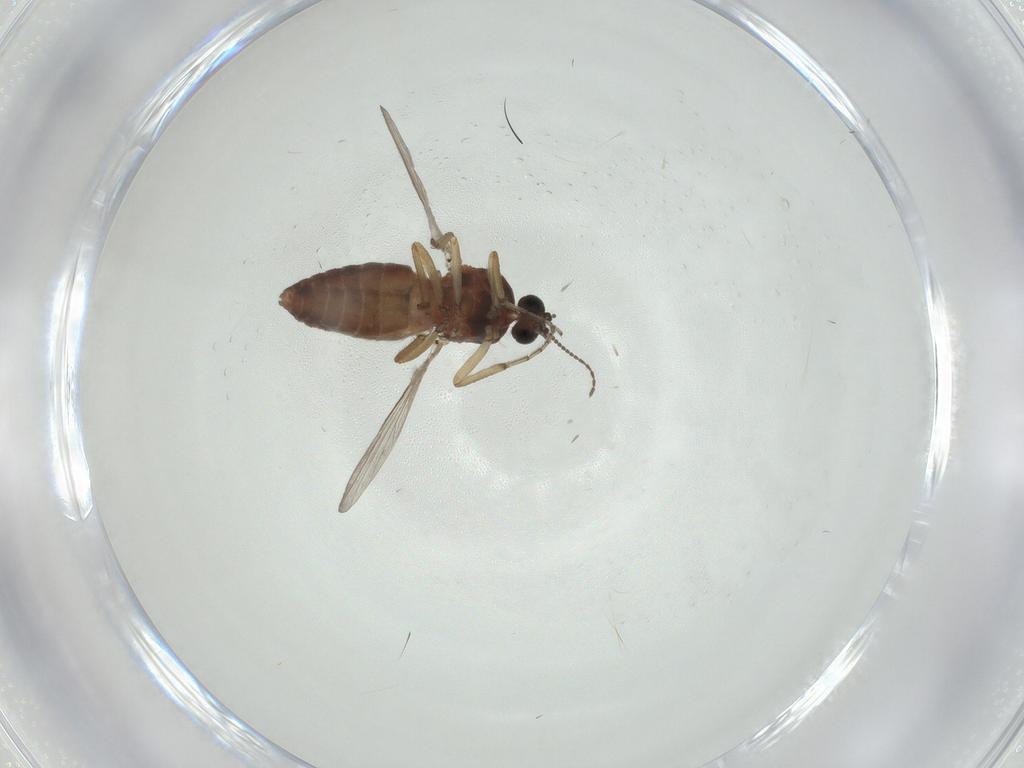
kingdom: Animalia
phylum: Arthropoda
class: Insecta
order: Diptera
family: Ceratopogonidae
